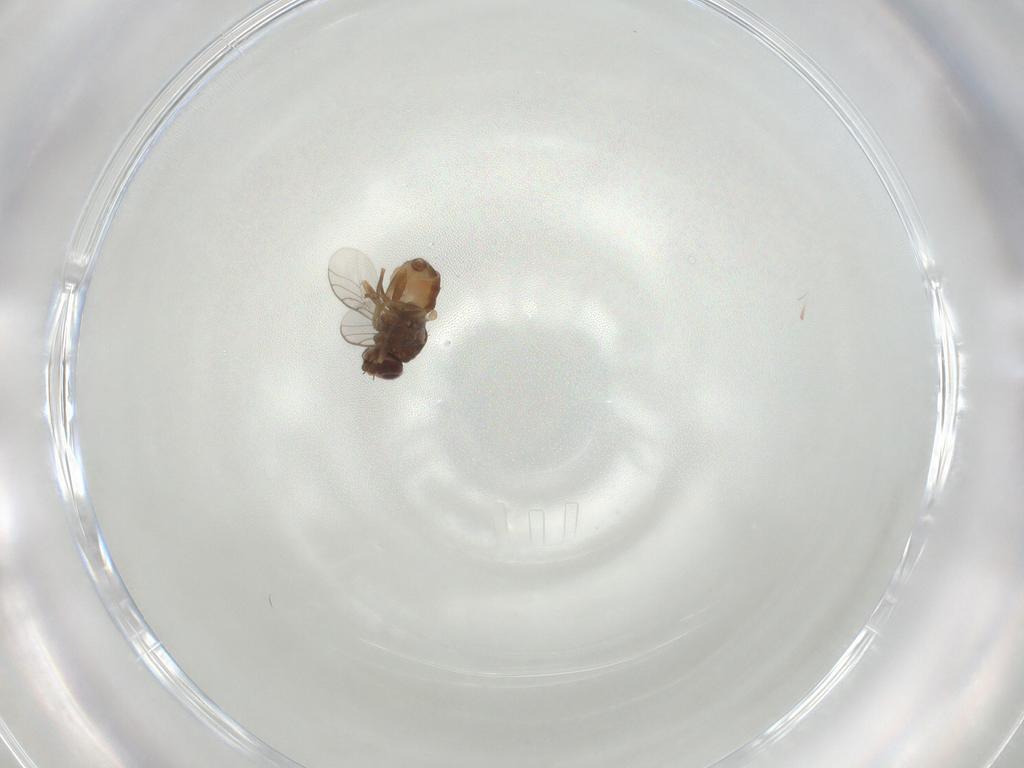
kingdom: Animalia
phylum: Arthropoda
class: Insecta
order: Diptera
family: Chloropidae
